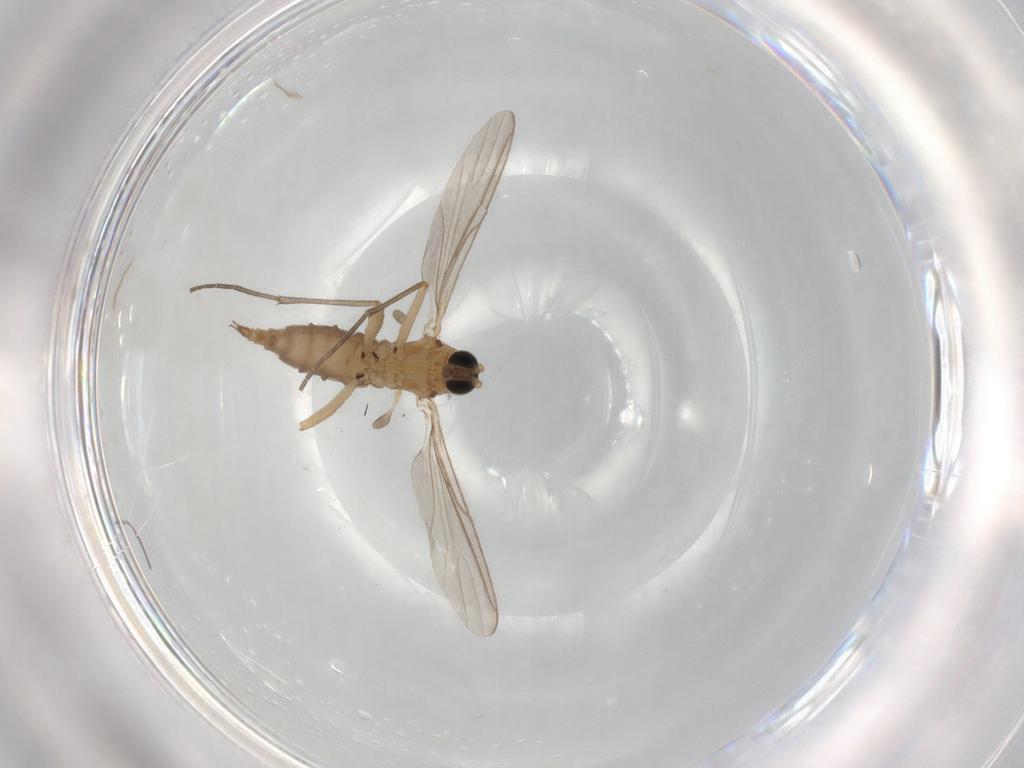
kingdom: Animalia
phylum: Arthropoda
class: Insecta
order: Diptera
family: Sciaridae
